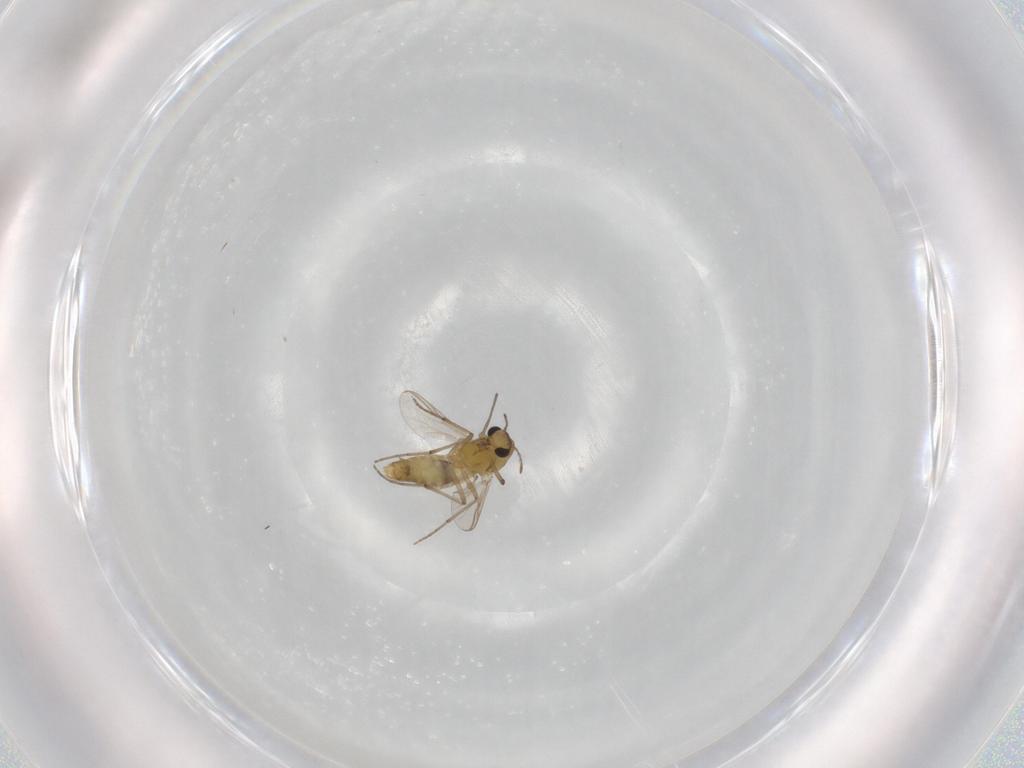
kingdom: Animalia
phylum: Arthropoda
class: Insecta
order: Diptera
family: Chironomidae
